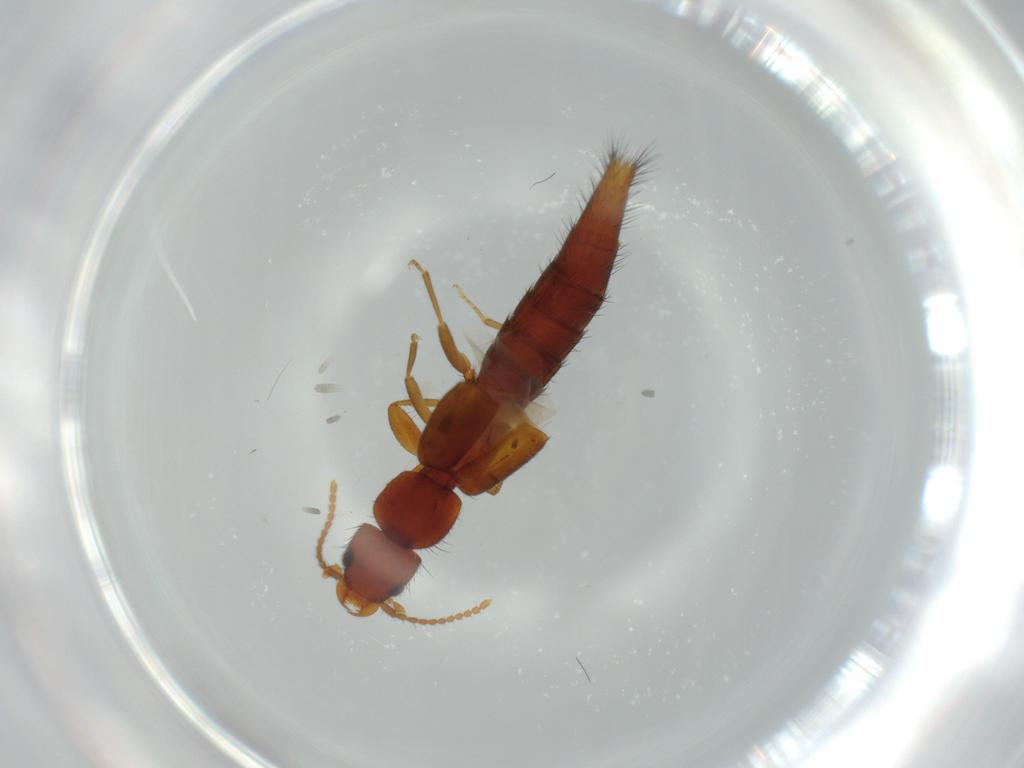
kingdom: Animalia
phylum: Arthropoda
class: Insecta
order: Coleoptera
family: Staphylinidae
